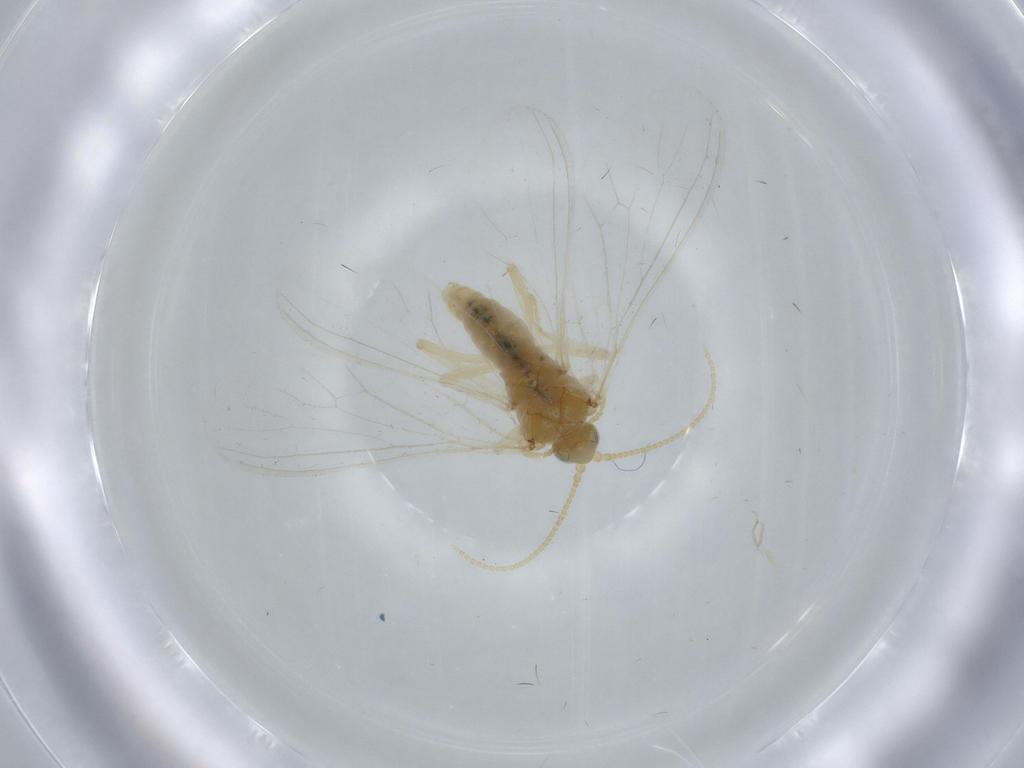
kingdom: Animalia
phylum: Arthropoda
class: Insecta
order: Neuroptera
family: Coniopterygidae
